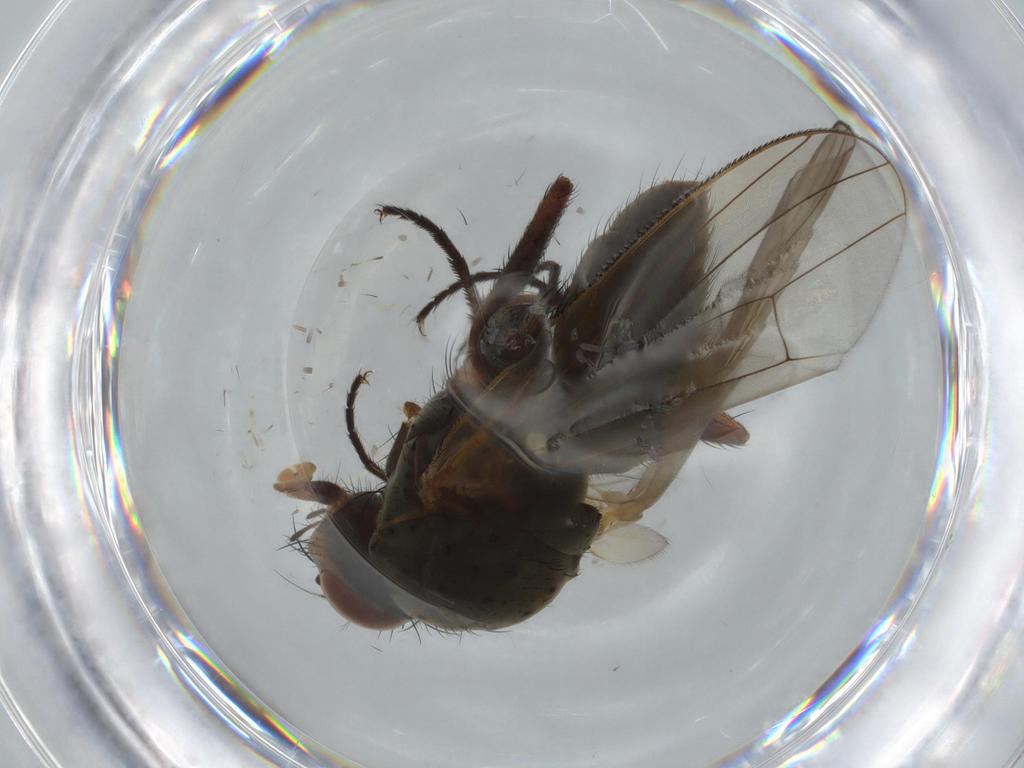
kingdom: Animalia
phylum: Arthropoda
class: Insecta
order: Diptera
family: Anthomyiidae
